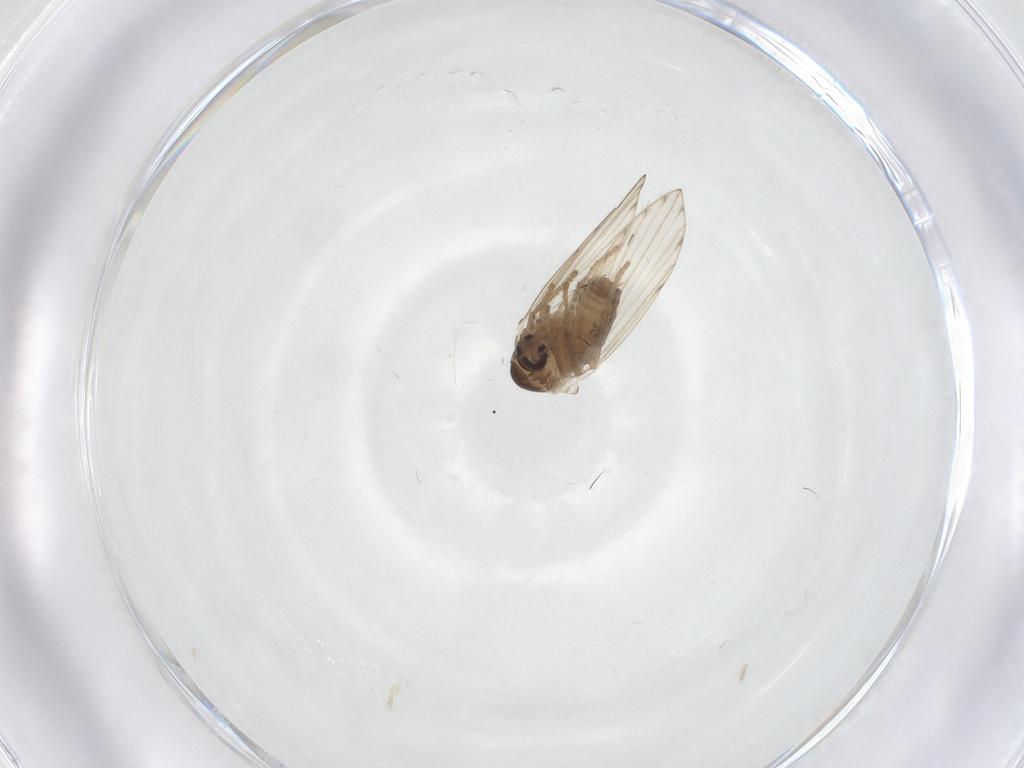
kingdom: Animalia
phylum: Arthropoda
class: Insecta
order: Diptera
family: Psychodidae
